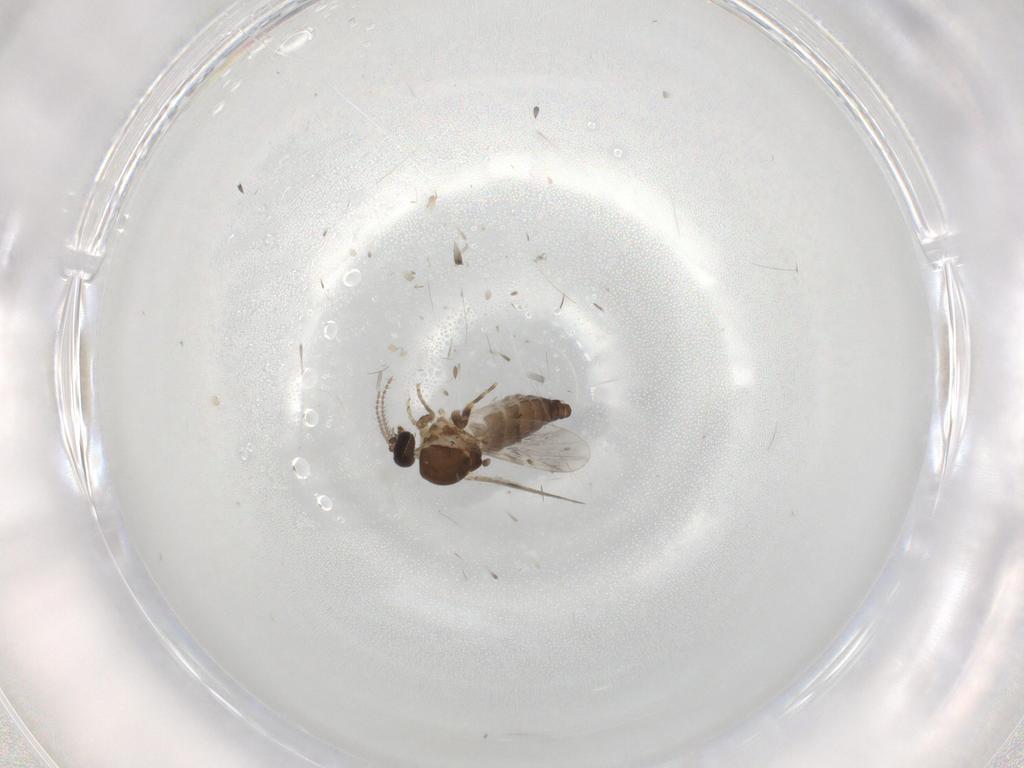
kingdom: Animalia
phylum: Arthropoda
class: Insecta
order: Diptera
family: Ceratopogonidae
